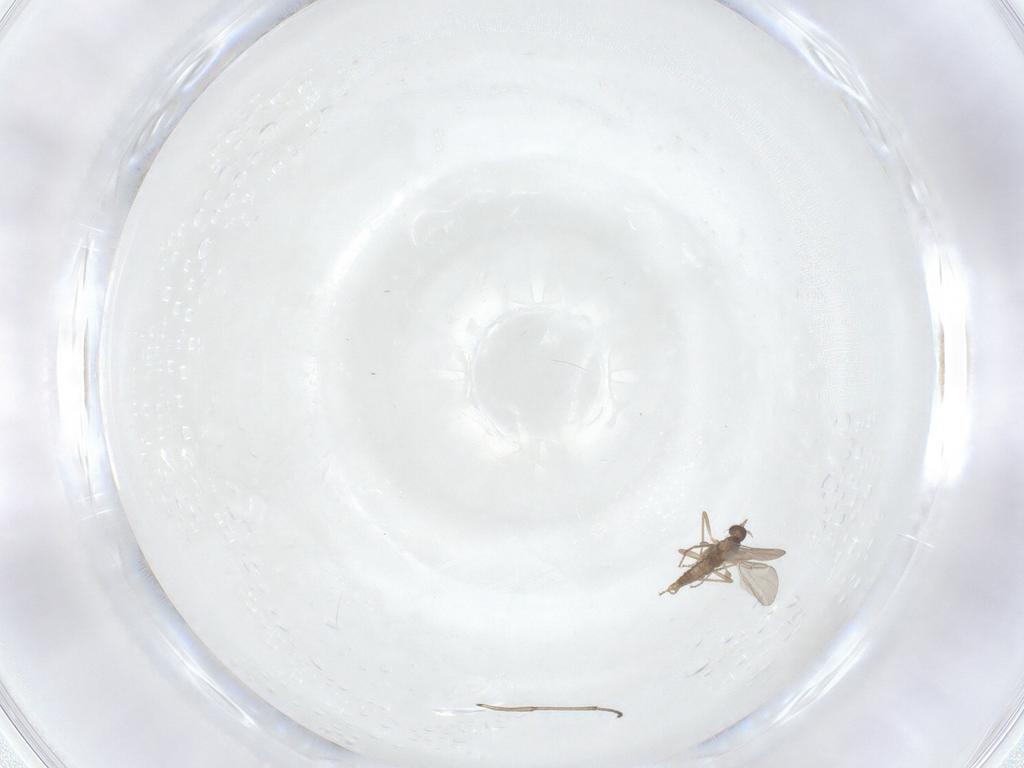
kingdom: Animalia
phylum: Arthropoda
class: Insecta
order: Diptera
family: Cecidomyiidae
